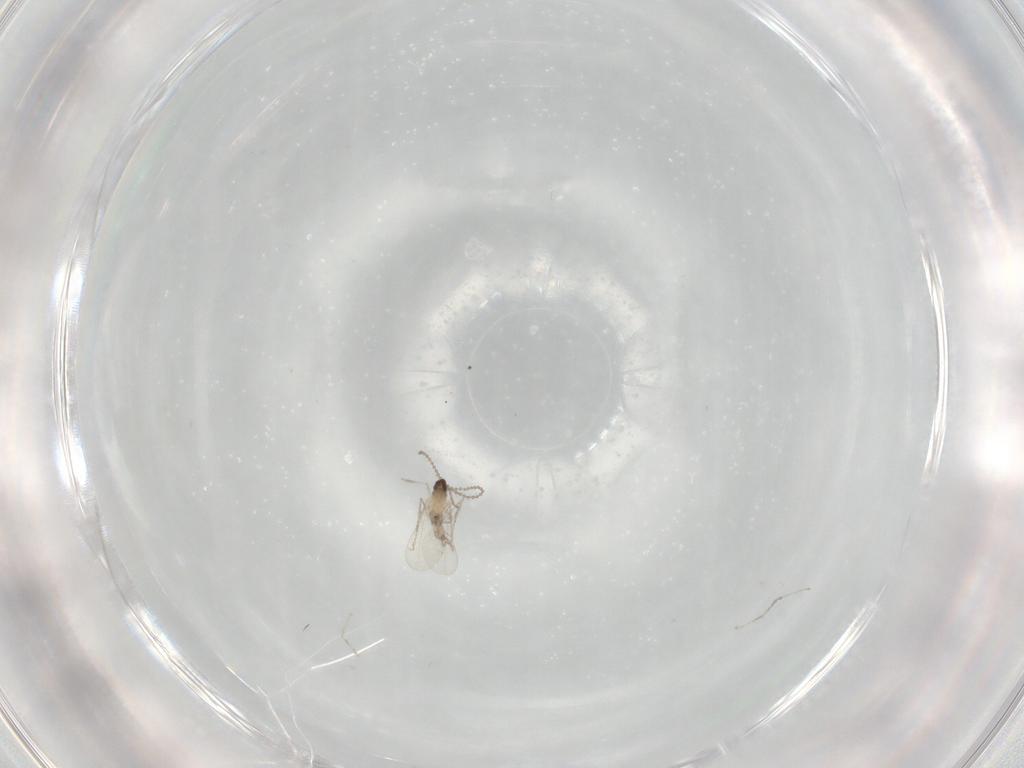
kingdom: Animalia
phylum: Arthropoda
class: Insecta
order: Diptera
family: Cecidomyiidae
